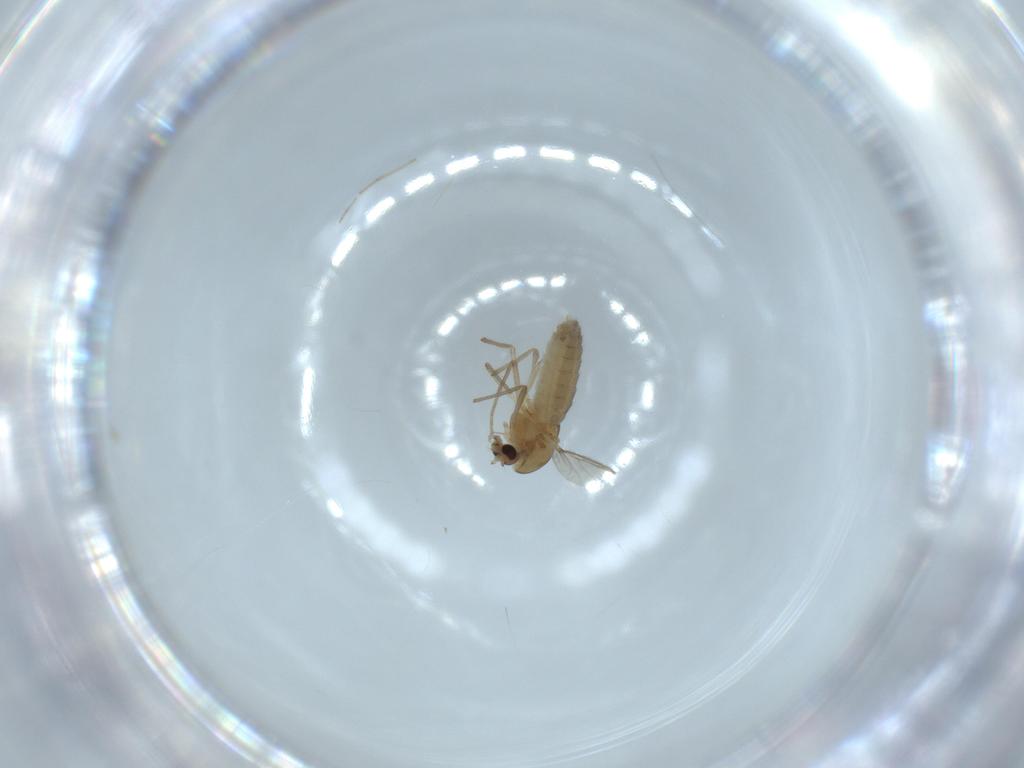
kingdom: Animalia
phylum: Arthropoda
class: Insecta
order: Diptera
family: Chironomidae
